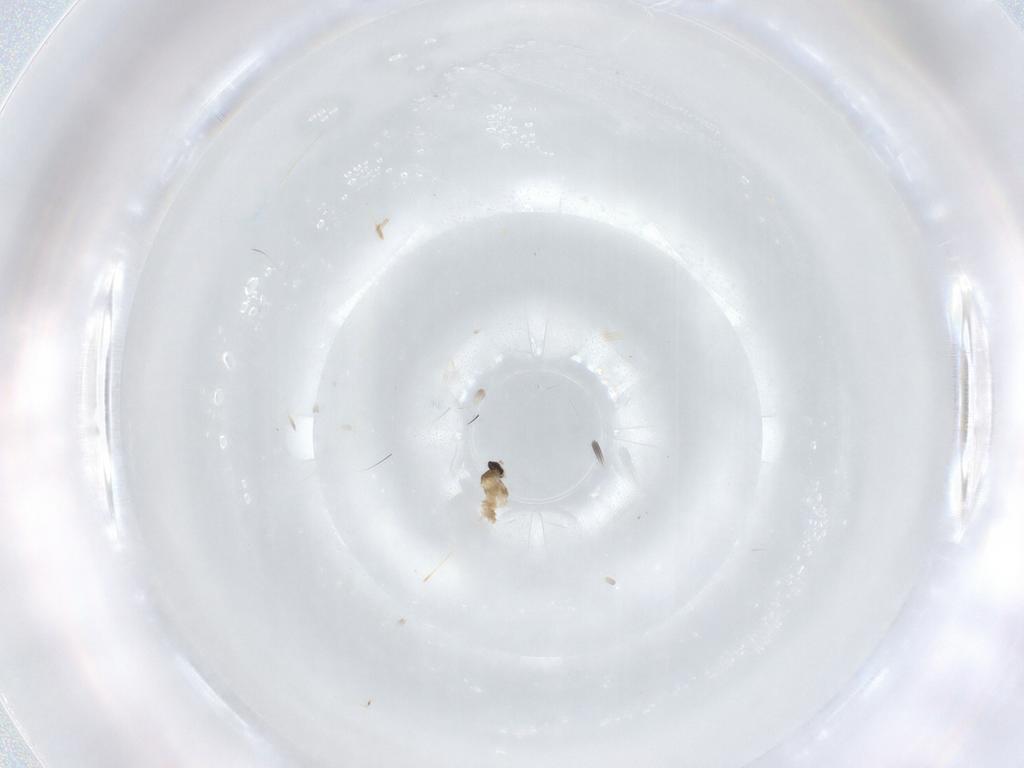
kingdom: Animalia
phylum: Arthropoda
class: Insecta
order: Diptera
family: Cecidomyiidae
